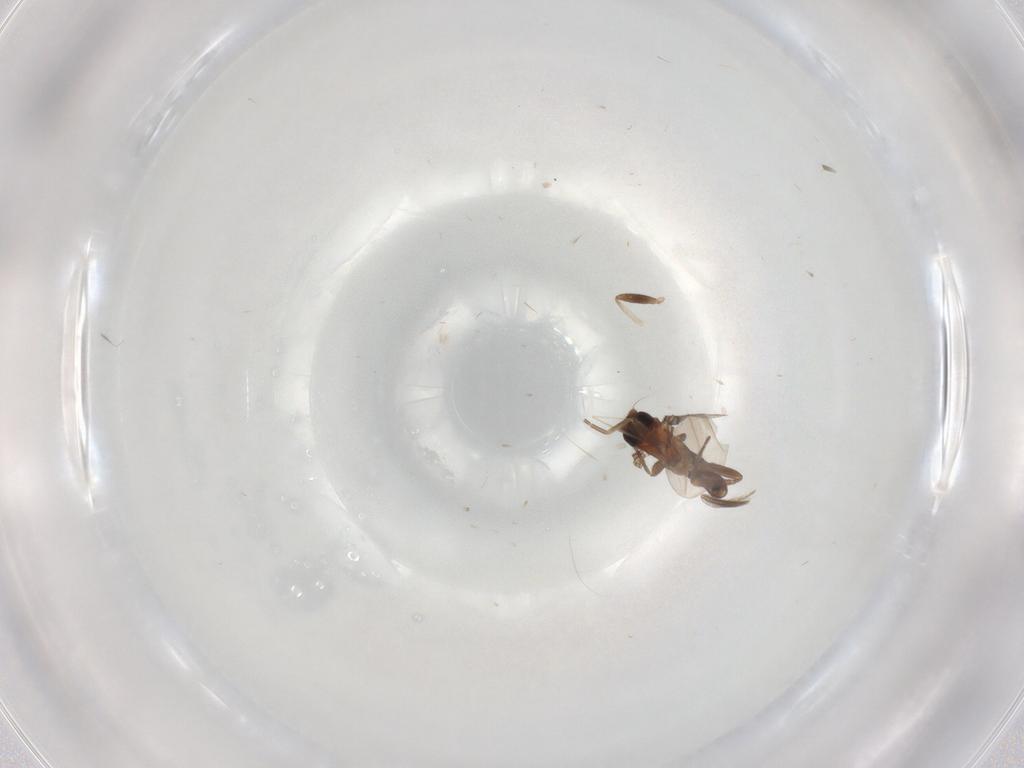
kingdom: Animalia
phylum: Arthropoda
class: Insecta
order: Diptera
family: Phoridae
